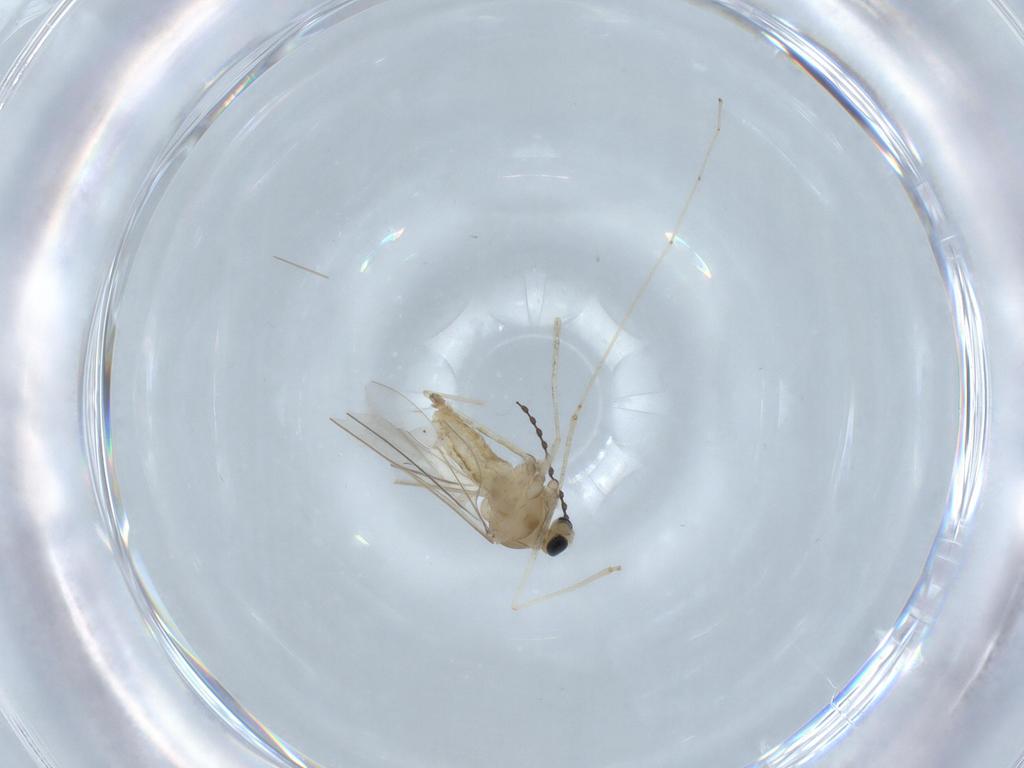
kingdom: Animalia
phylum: Arthropoda
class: Insecta
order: Diptera
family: Cecidomyiidae
